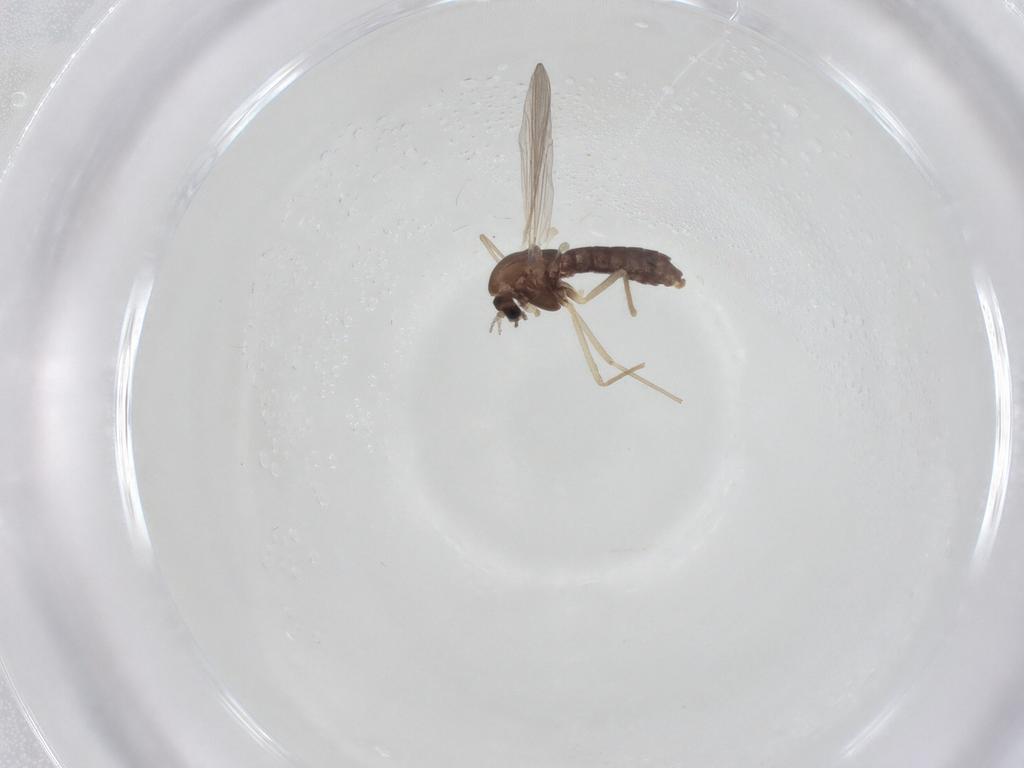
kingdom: Animalia
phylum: Arthropoda
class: Insecta
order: Diptera
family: Chironomidae
